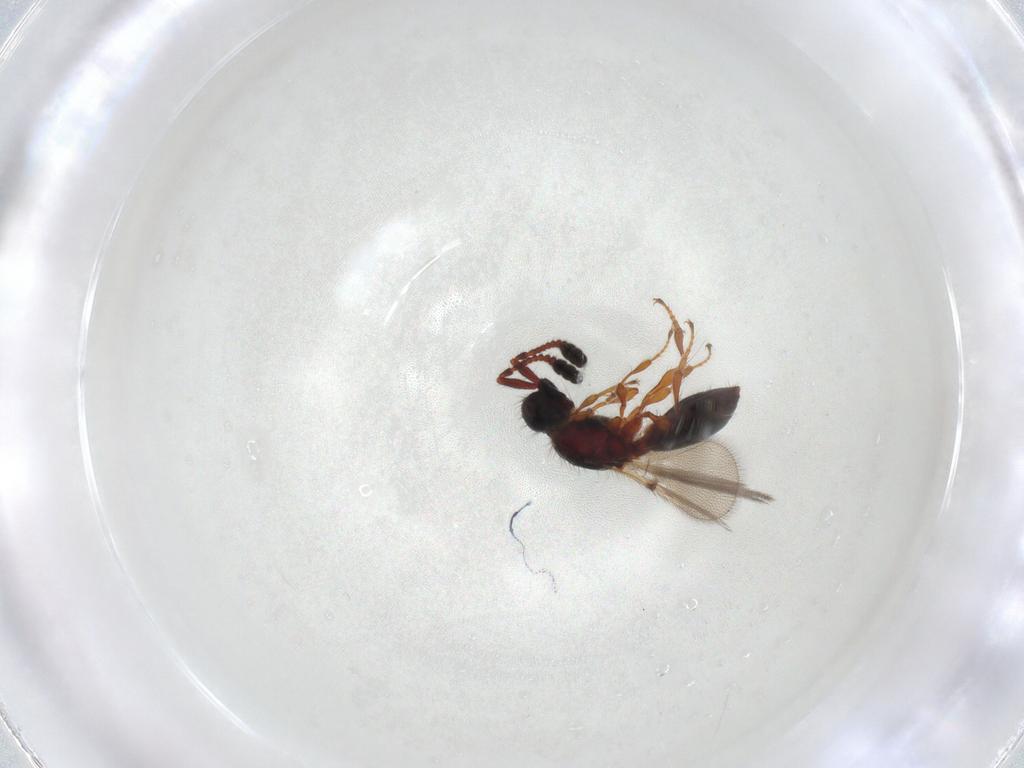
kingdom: Animalia
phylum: Arthropoda
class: Insecta
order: Hymenoptera
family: Diapriidae
